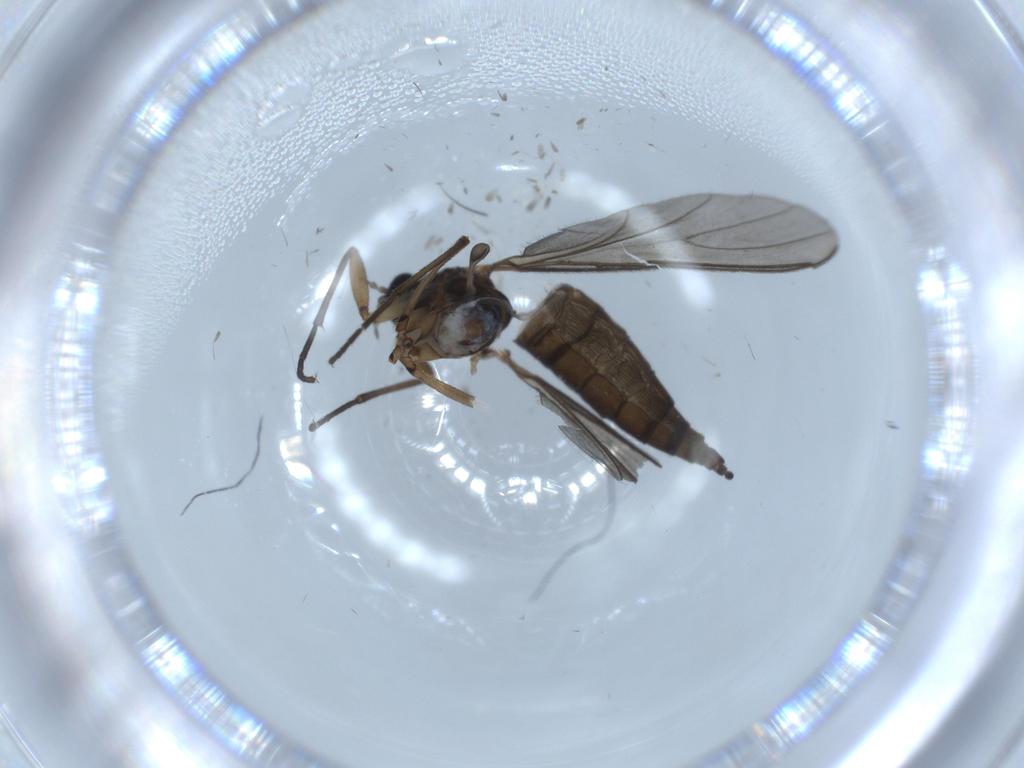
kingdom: Animalia
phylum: Arthropoda
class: Insecta
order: Diptera
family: Sciaridae
